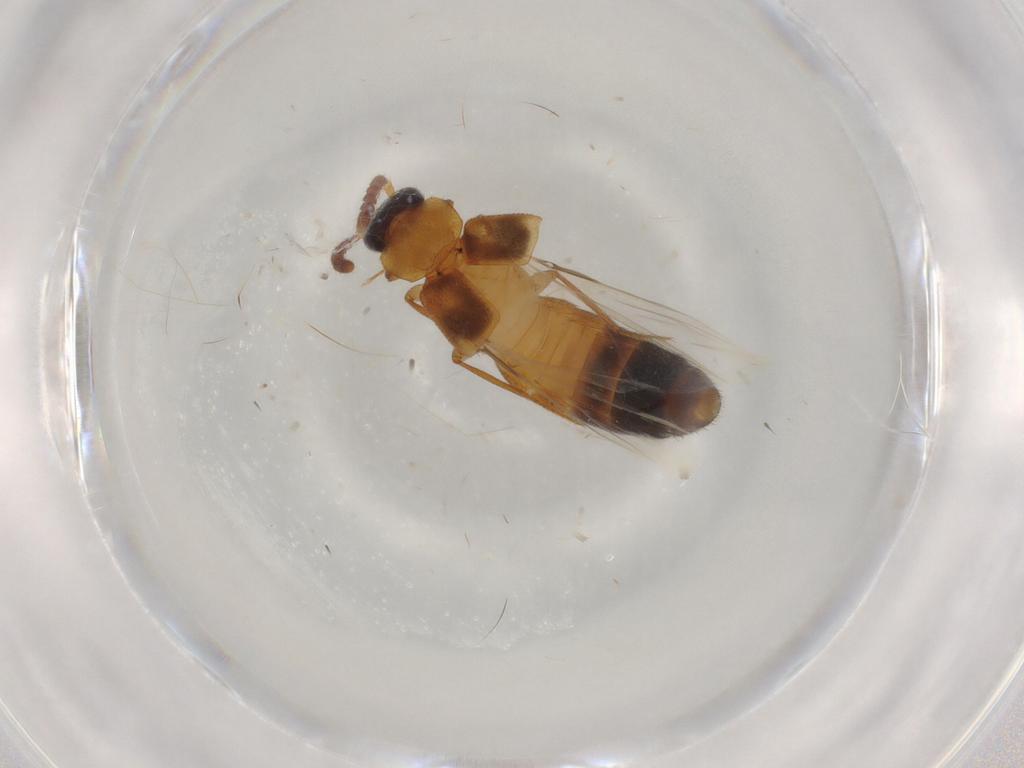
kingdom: Animalia
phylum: Arthropoda
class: Insecta
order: Coleoptera
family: Staphylinidae
